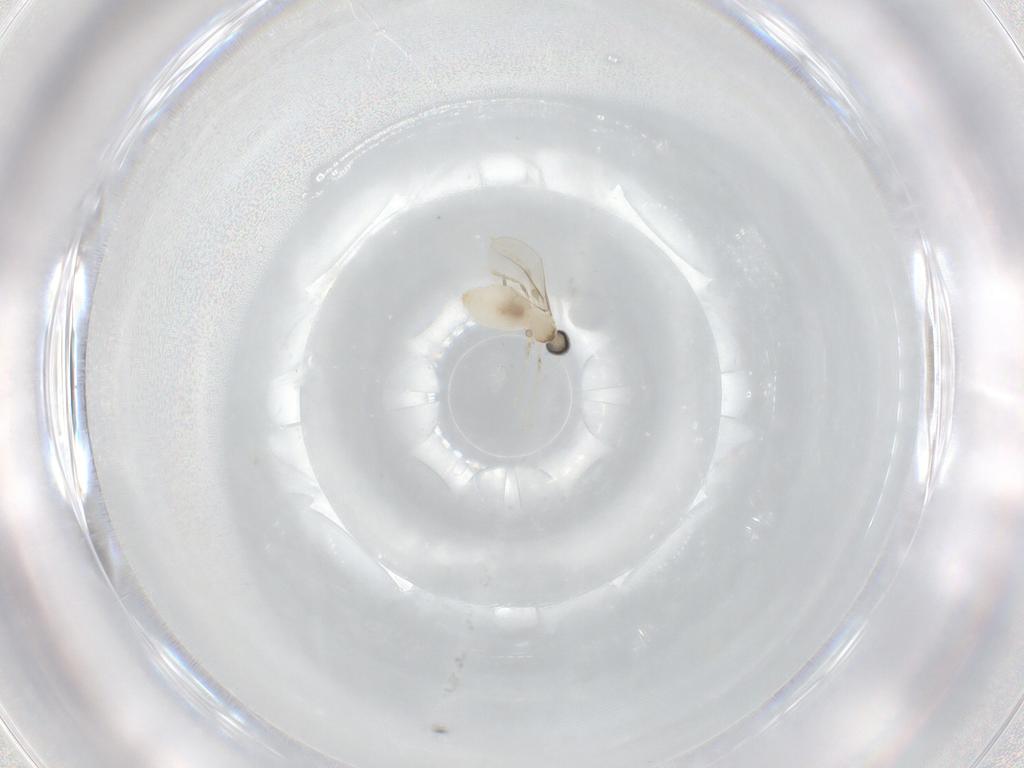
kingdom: Animalia
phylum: Arthropoda
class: Insecta
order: Diptera
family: Cecidomyiidae
